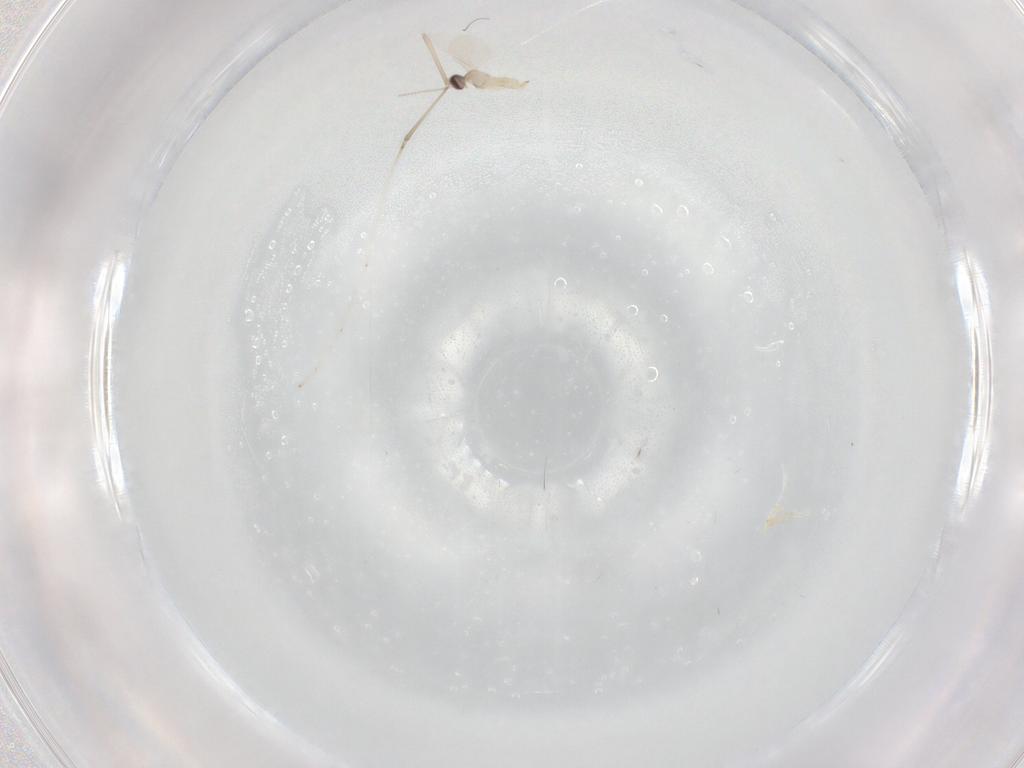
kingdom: Animalia
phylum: Arthropoda
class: Insecta
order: Diptera
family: Cecidomyiidae
